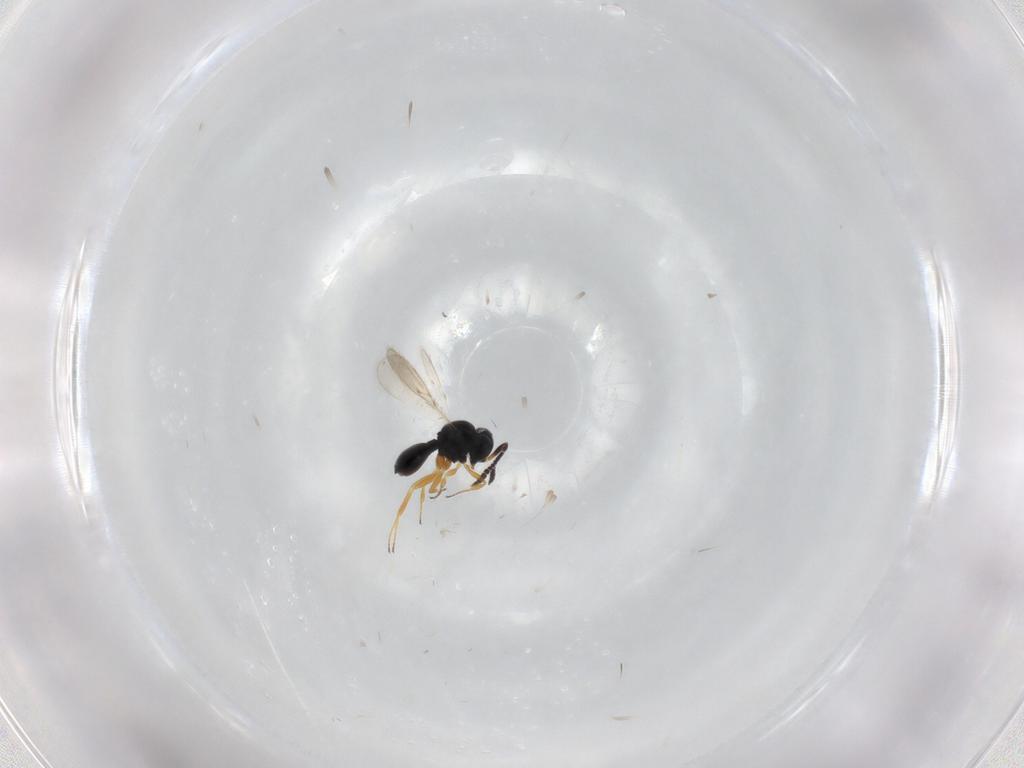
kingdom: Animalia
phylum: Arthropoda
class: Insecta
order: Hymenoptera
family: Scelionidae
